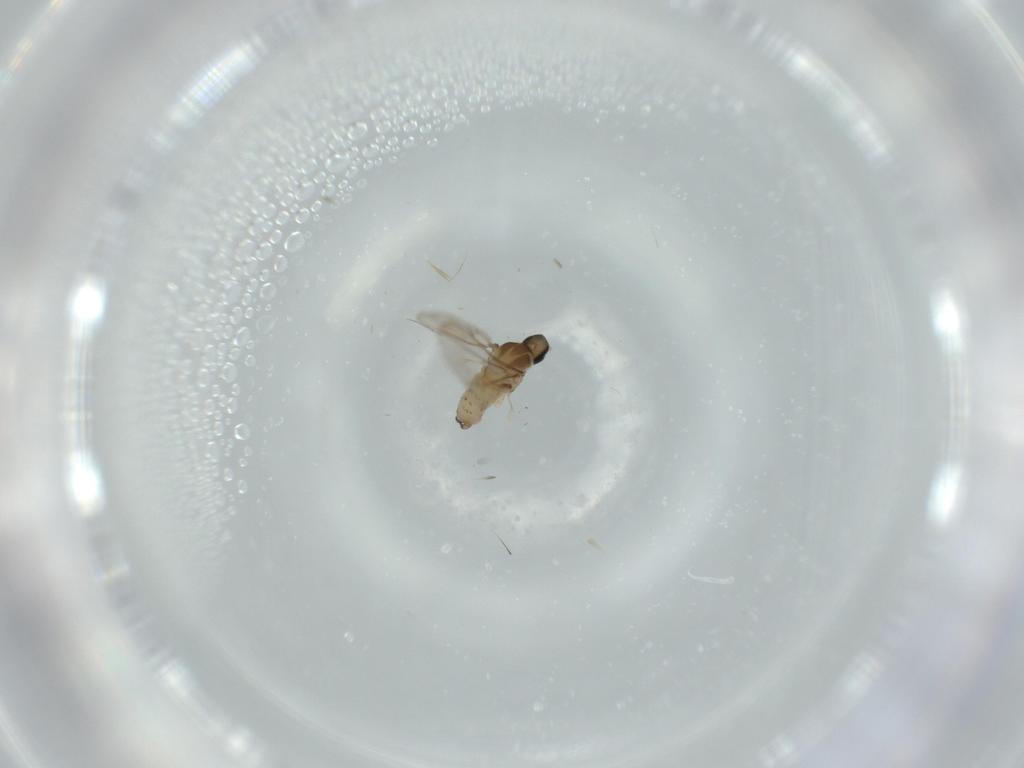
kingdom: Animalia
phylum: Arthropoda
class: Insecta
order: Diptera
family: Cecidomyiidae
